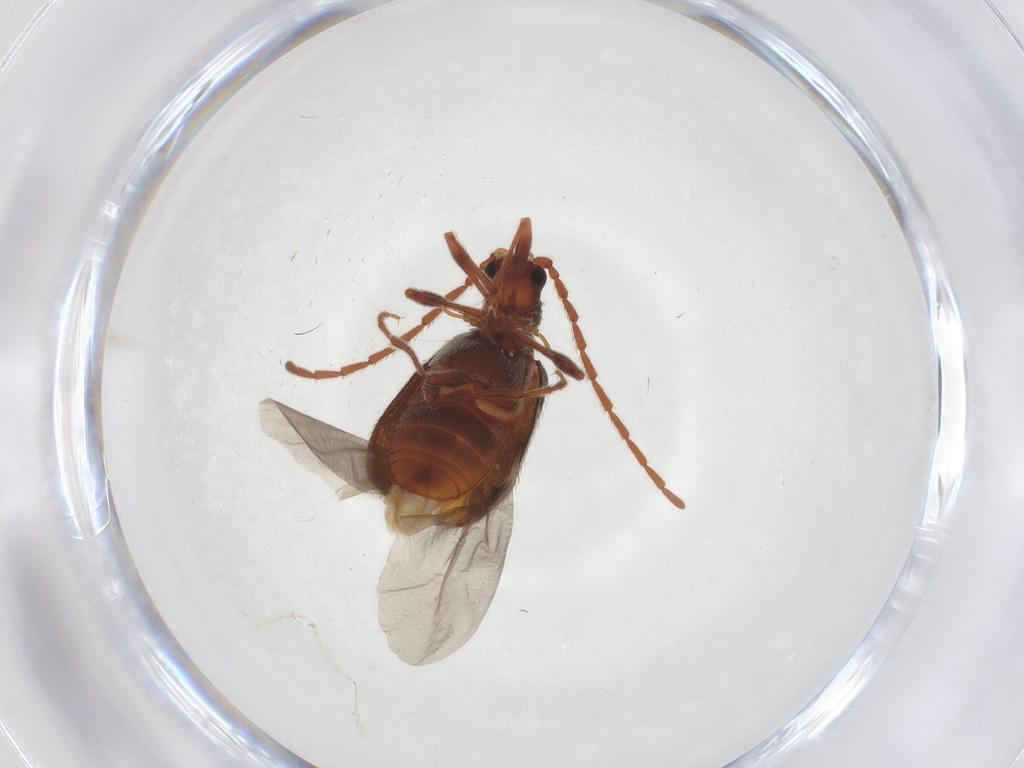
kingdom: Animalia
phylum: Arthropoda
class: Insecta
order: Coleoptera
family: Ptinidae
